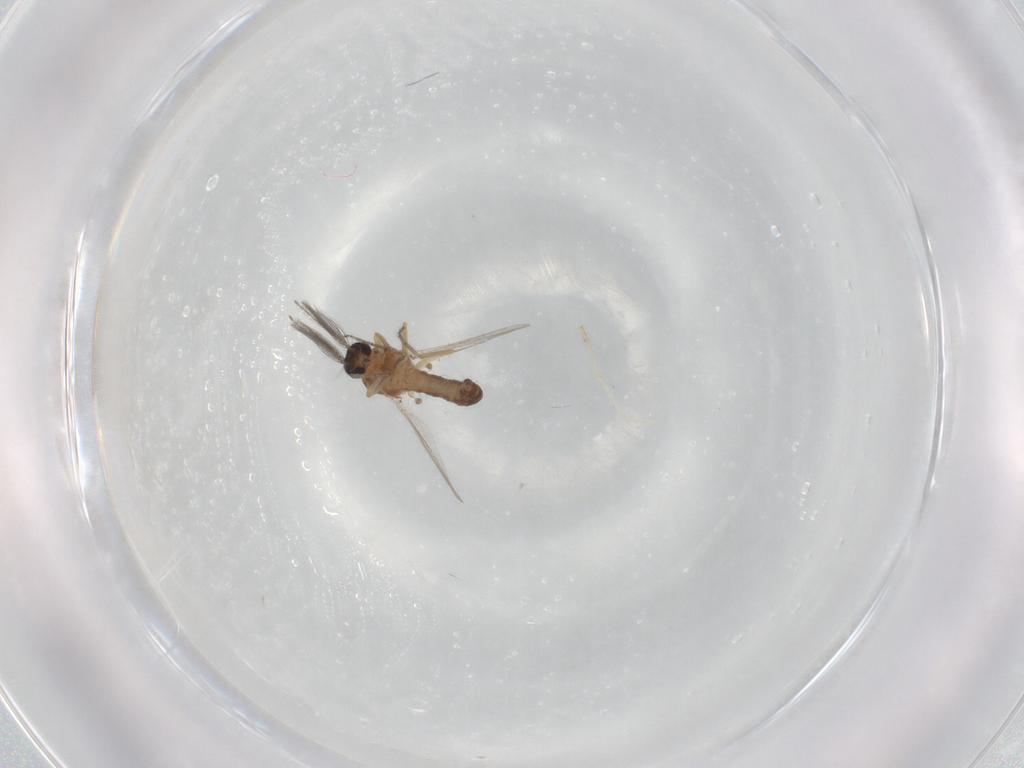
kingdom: Animalia
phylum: Arthropoda
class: Insecta
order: Diptera
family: Ceratopogonidae
